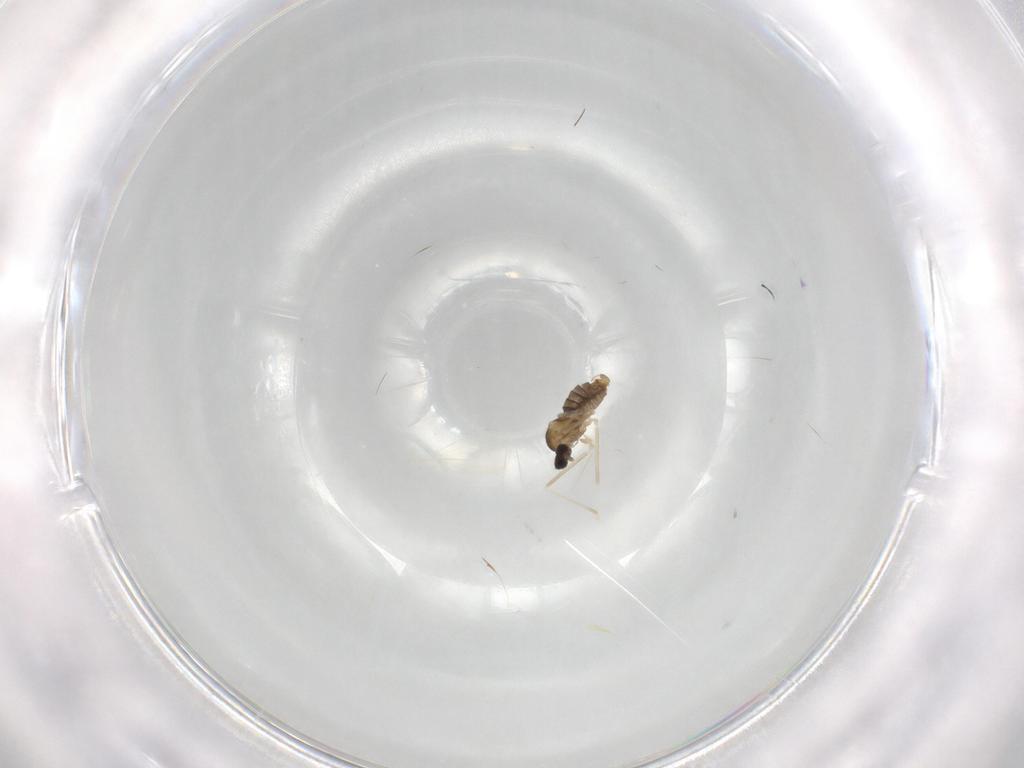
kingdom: Animalia
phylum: Arthropoda
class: Insecta
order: Diptera
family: Cecidomyiidae
